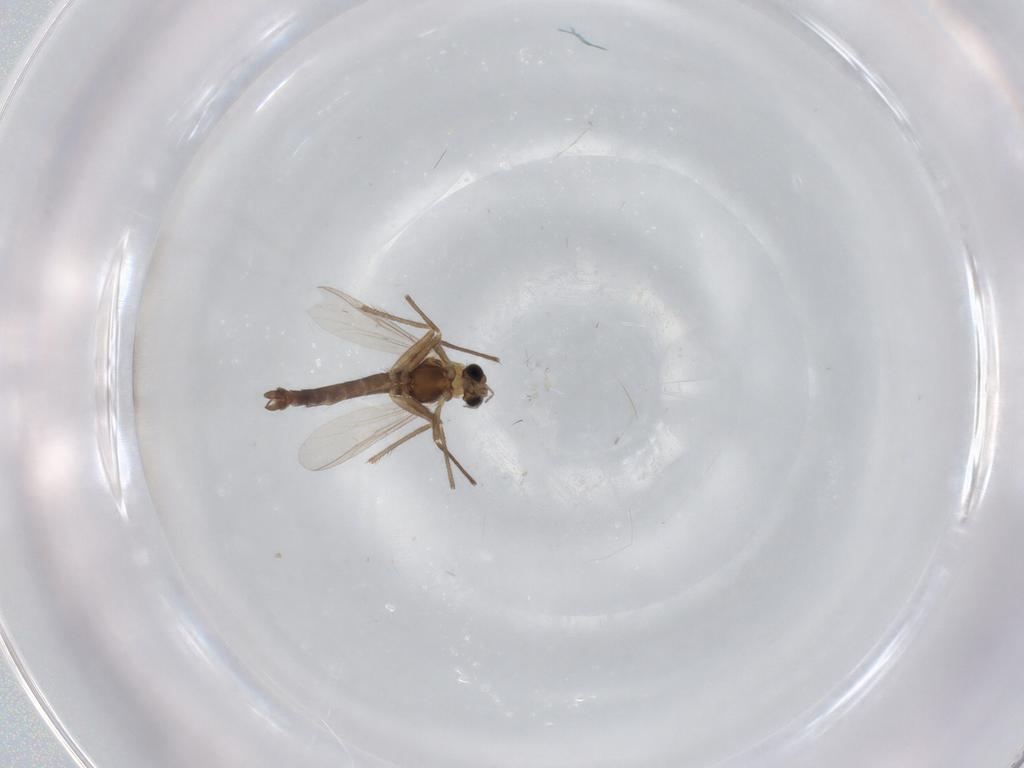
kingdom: Animalia
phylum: Arthropoda
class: Insecta
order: Diptera
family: Chironomidae
